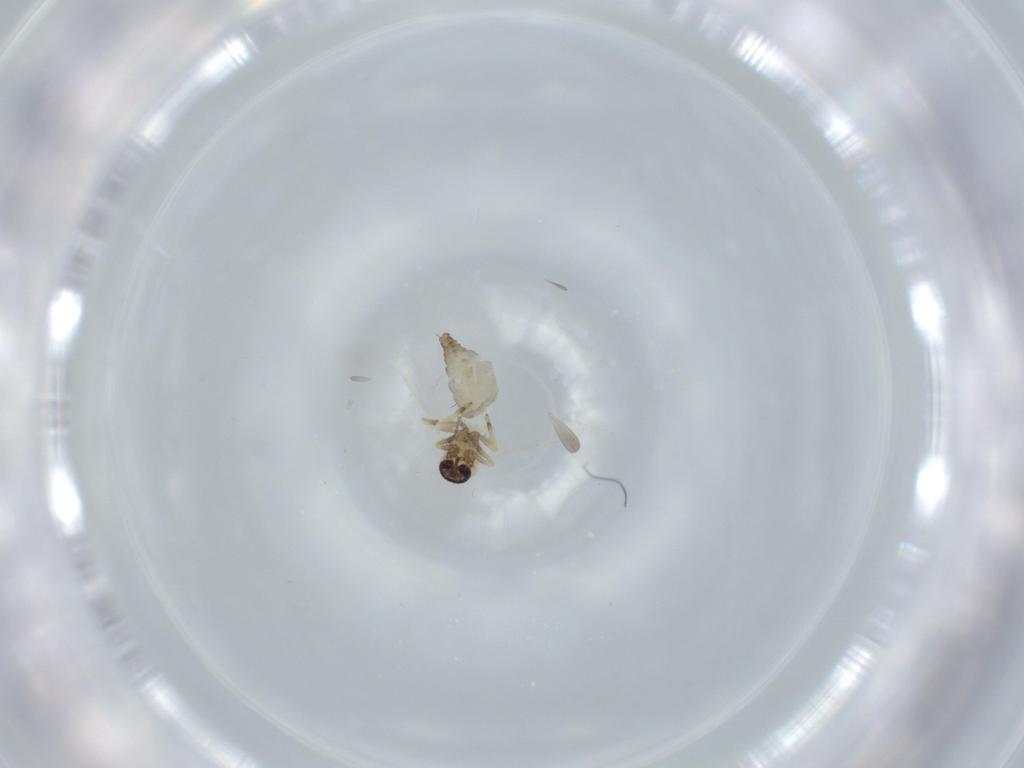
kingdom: Animalia
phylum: Arthropoda
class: Insecta
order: Diptera
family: Ceratopogonidae
